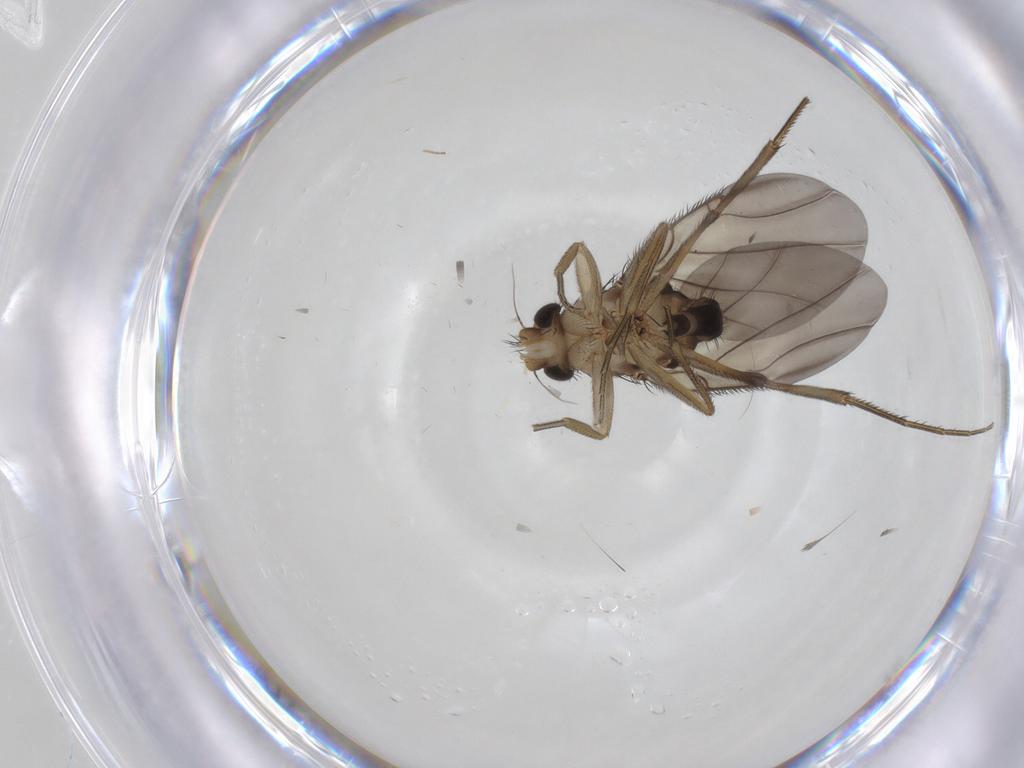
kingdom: Animalia
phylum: Arthropoda
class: Insecta
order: Diptera
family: Phoridae
